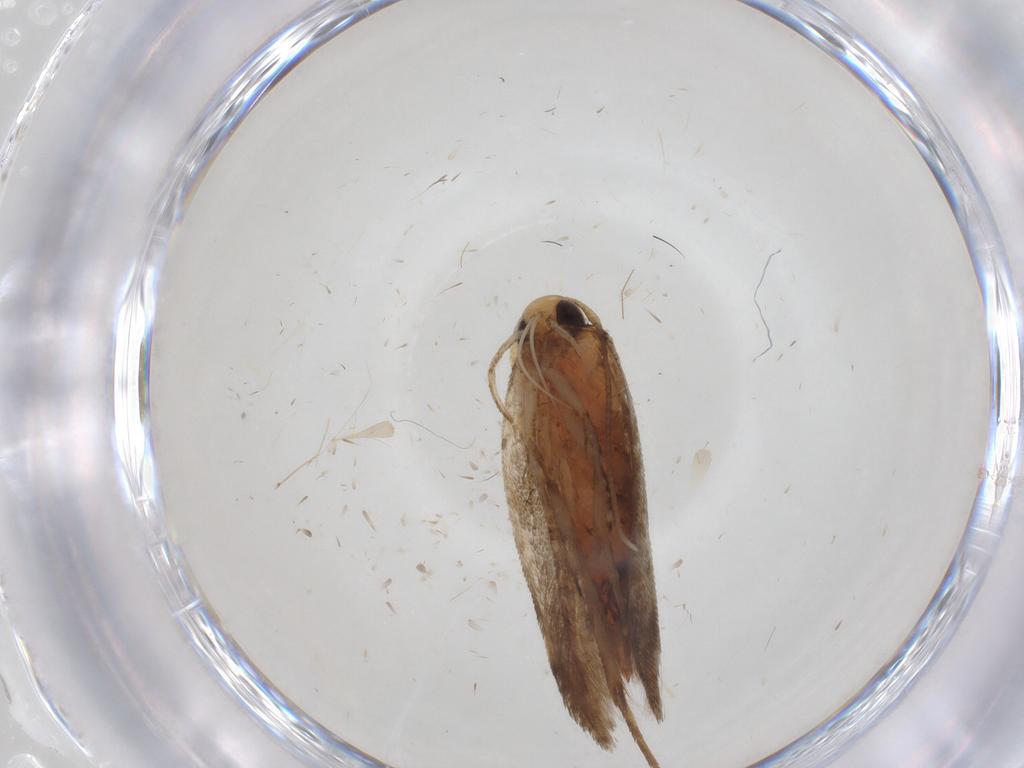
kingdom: Animalia
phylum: Arthropoda
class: Insecta
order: Lepidoptera
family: Cosmopterigidae
